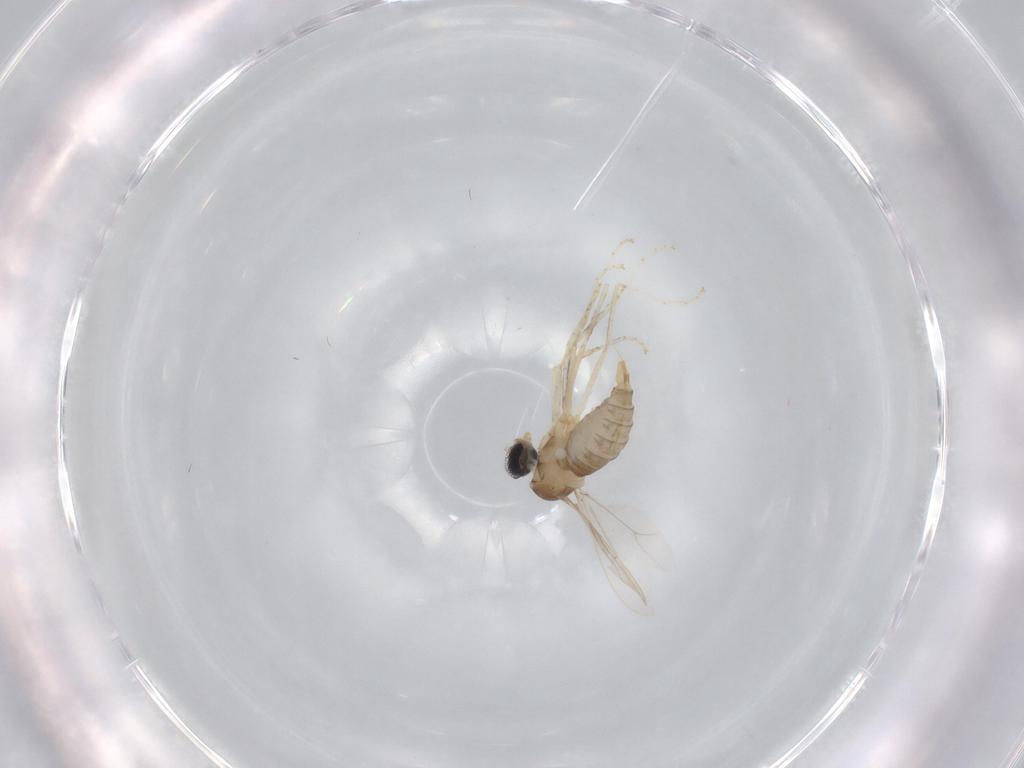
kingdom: Animalia
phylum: Arthropoda
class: Insecta
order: Diptera
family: Cecidomyiidae
